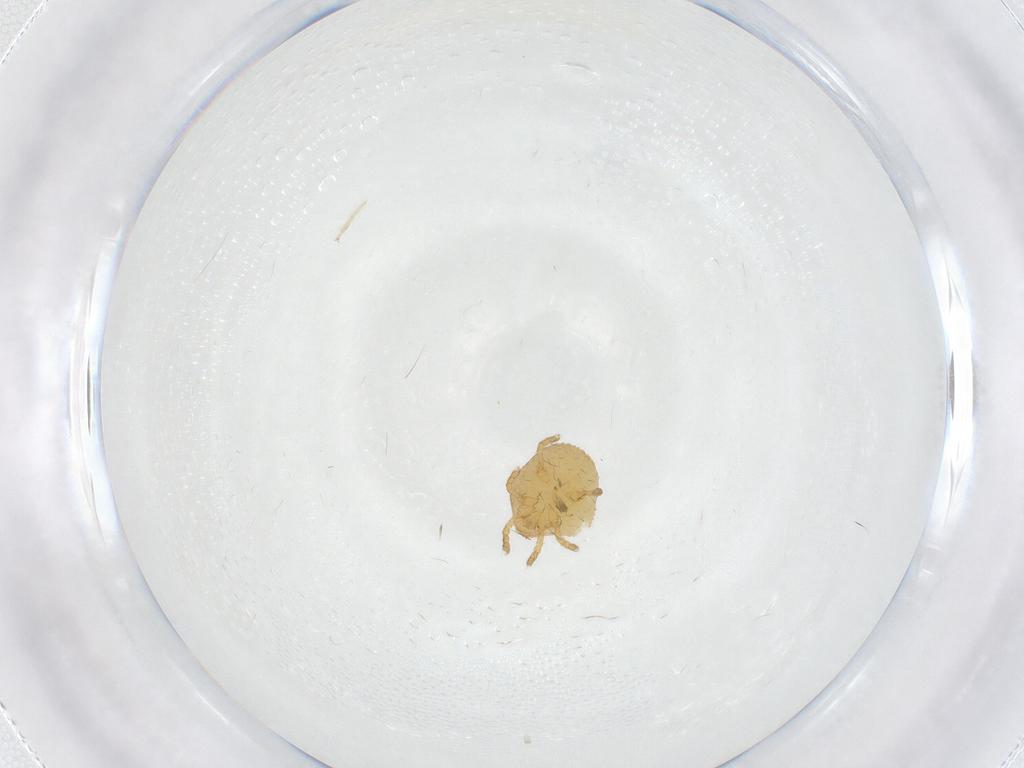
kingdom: Animalia
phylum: Arthropoda
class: Arachnida
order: Trombidiformes
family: Calyptostomatidae
